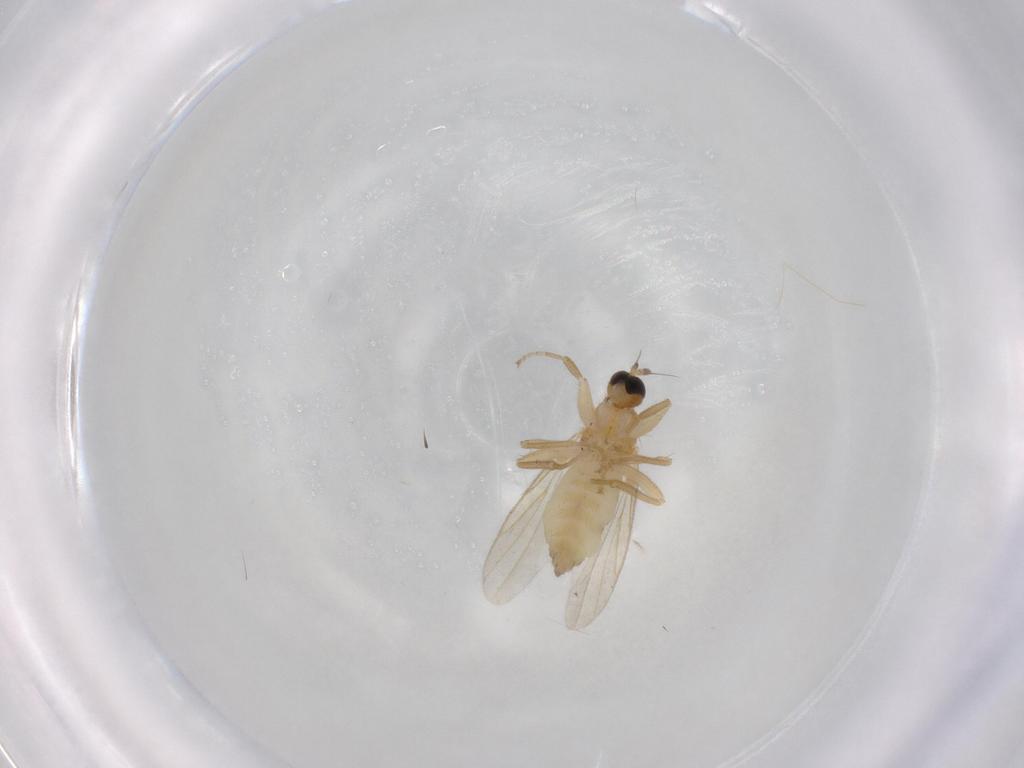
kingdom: Animalia
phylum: Arthropoda
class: Insecta
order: Diptera
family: Hybotidae
